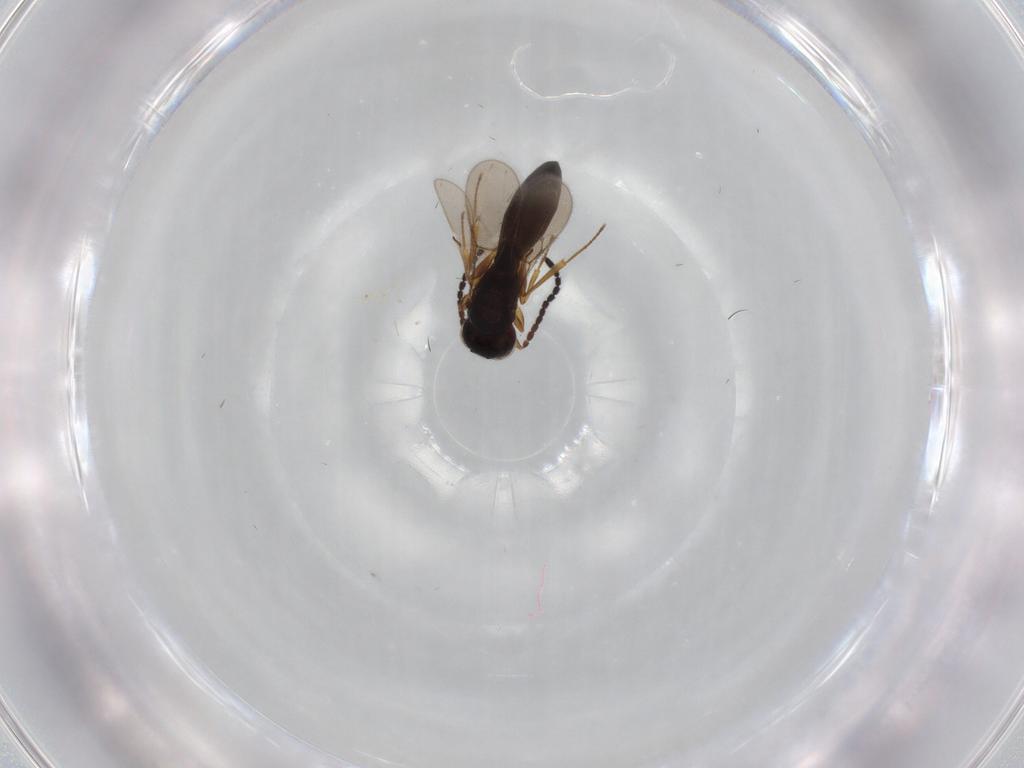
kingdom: Animalia
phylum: Arthropoda
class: Insecta
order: Hymenoptera
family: Scelionidae
